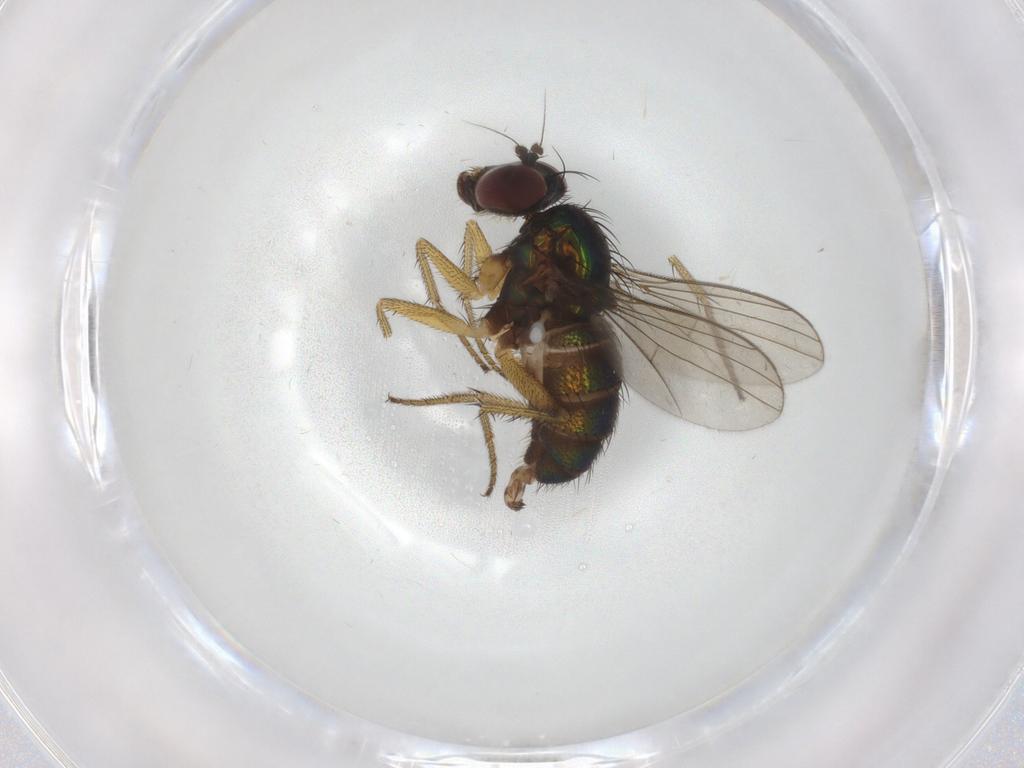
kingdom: Animalia
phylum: Arthropoda
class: Insecta
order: Diptera
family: Dolichopodidae
